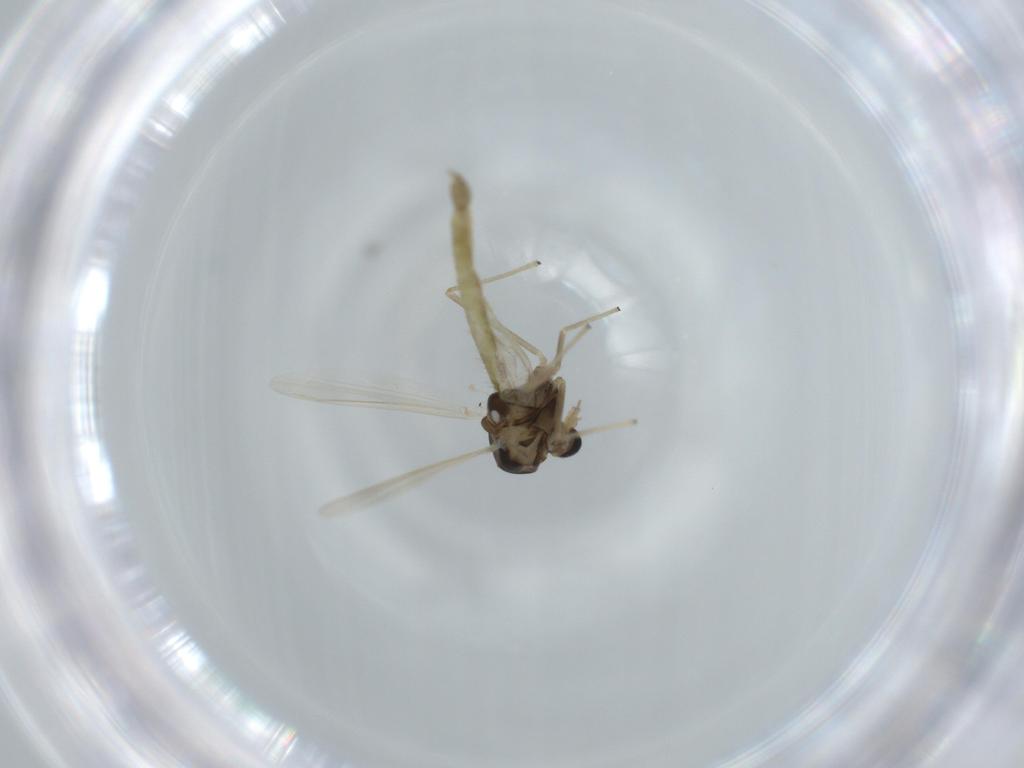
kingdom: Animalia
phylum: Arthropoda
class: Insecta
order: Diptera
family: Chironomidae
